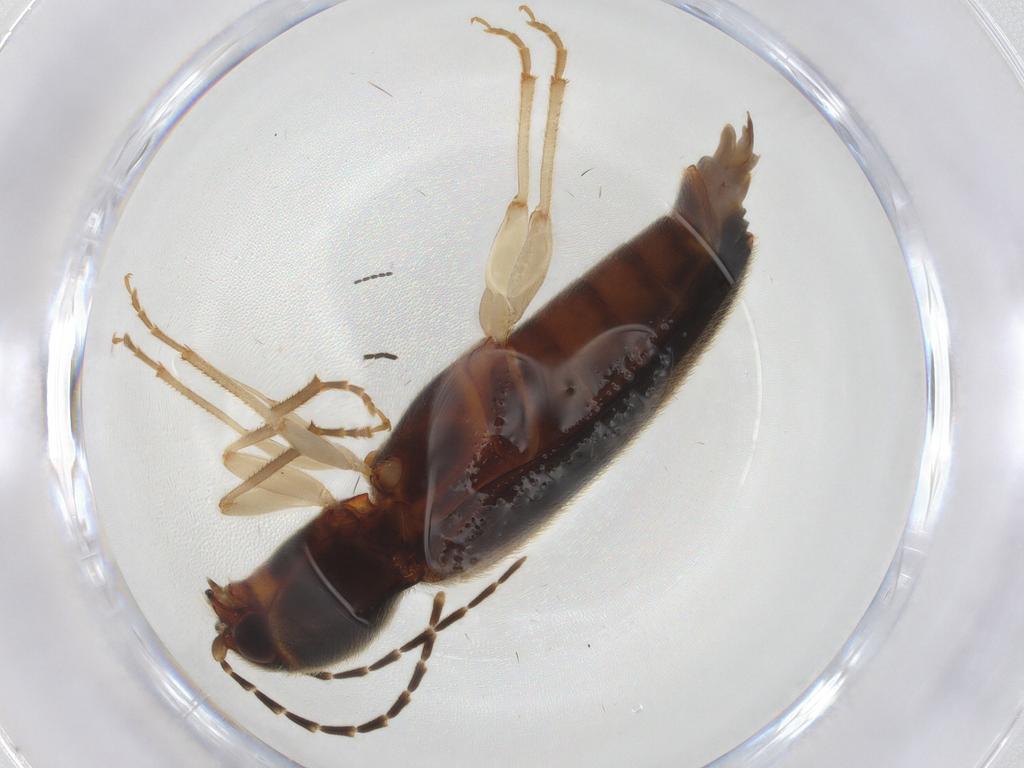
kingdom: Animalia
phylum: Arthropoda
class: Insecta
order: Coleoptera
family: Elateridae
